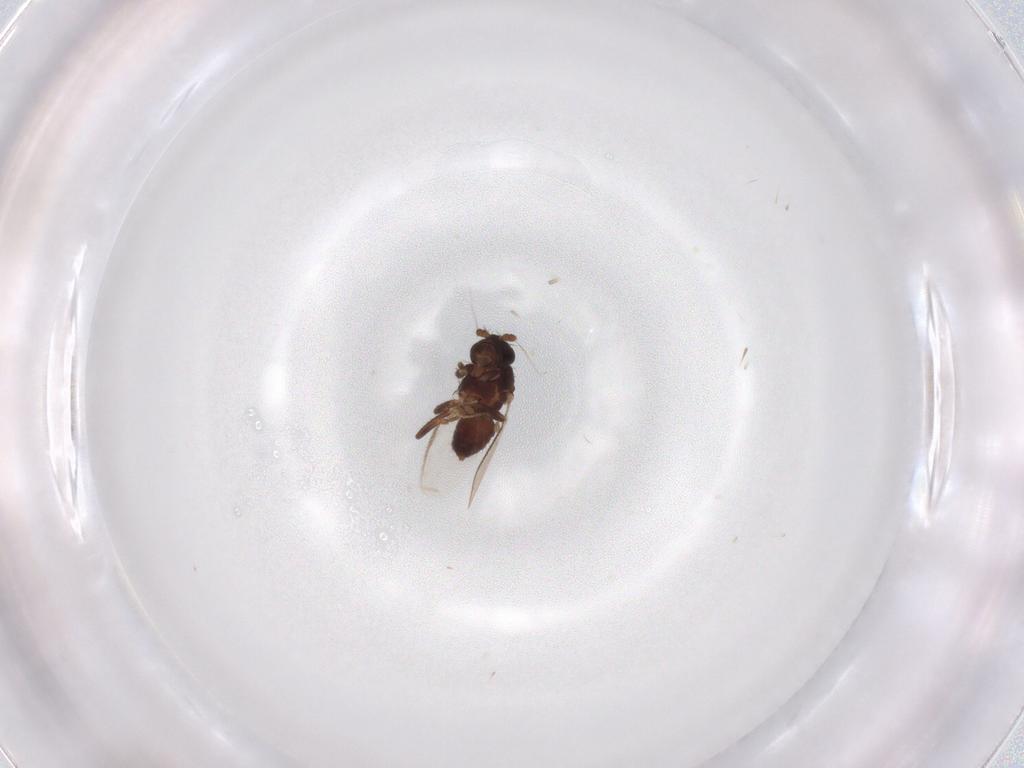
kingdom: Animalia
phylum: Arthropoda
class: Insecta
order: Diptera
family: Sphaeroceridae
